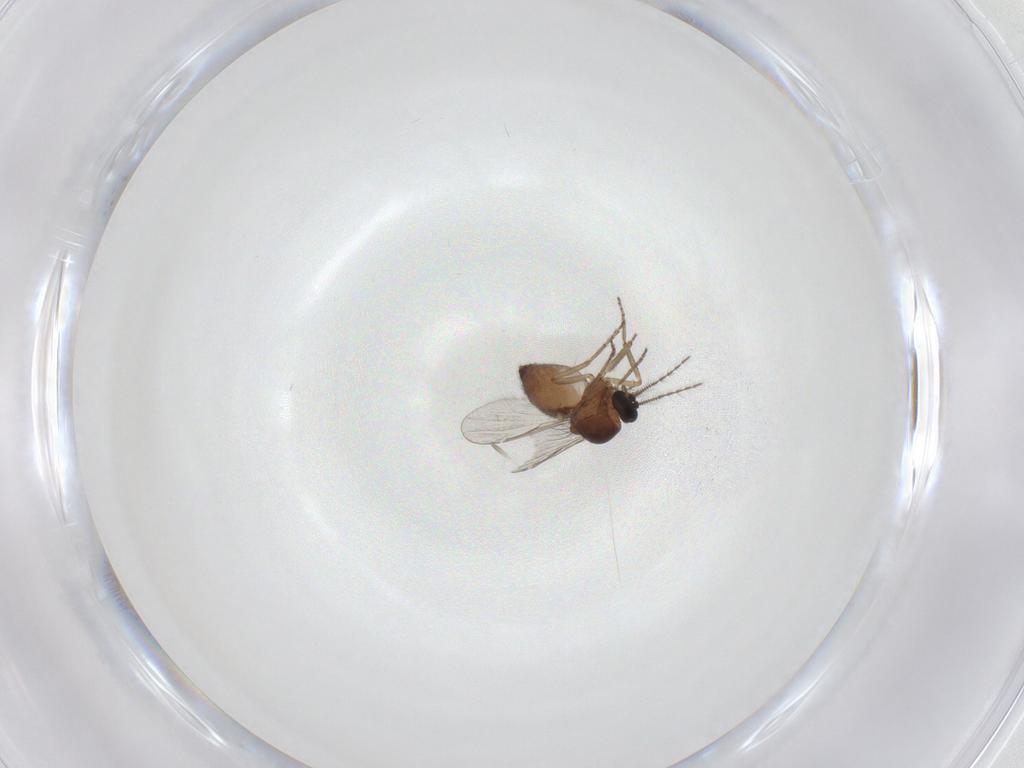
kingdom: Animalia
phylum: Arthropoda
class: Insecta
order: Diptera
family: Ceratopogonidae
